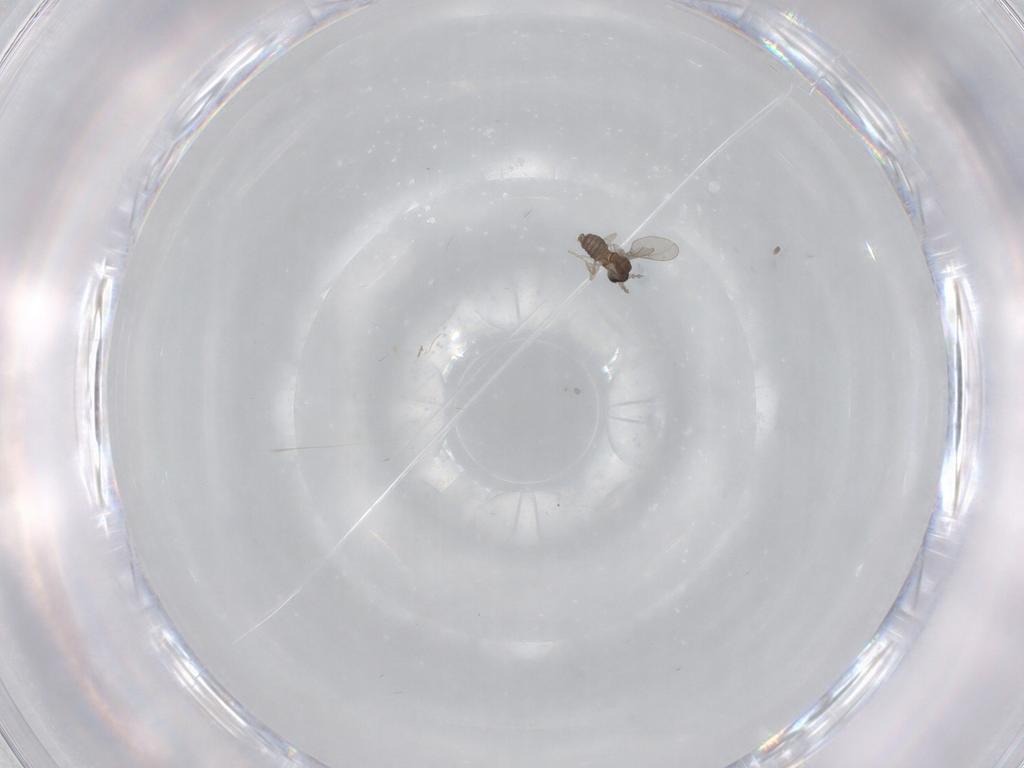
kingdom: Animalia
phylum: Arthropoda
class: Insecta
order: Diptera
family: Cecidomyiidae
